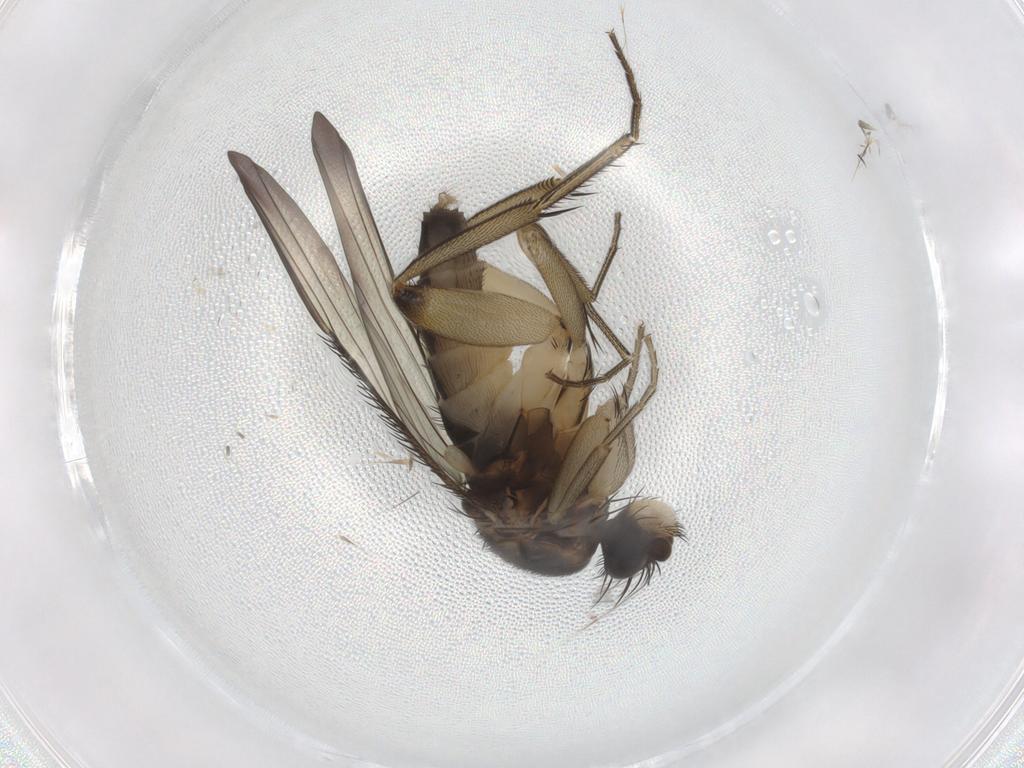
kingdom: Animalia
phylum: Arthropoda
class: Insecta
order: Diptera
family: Phoridae
